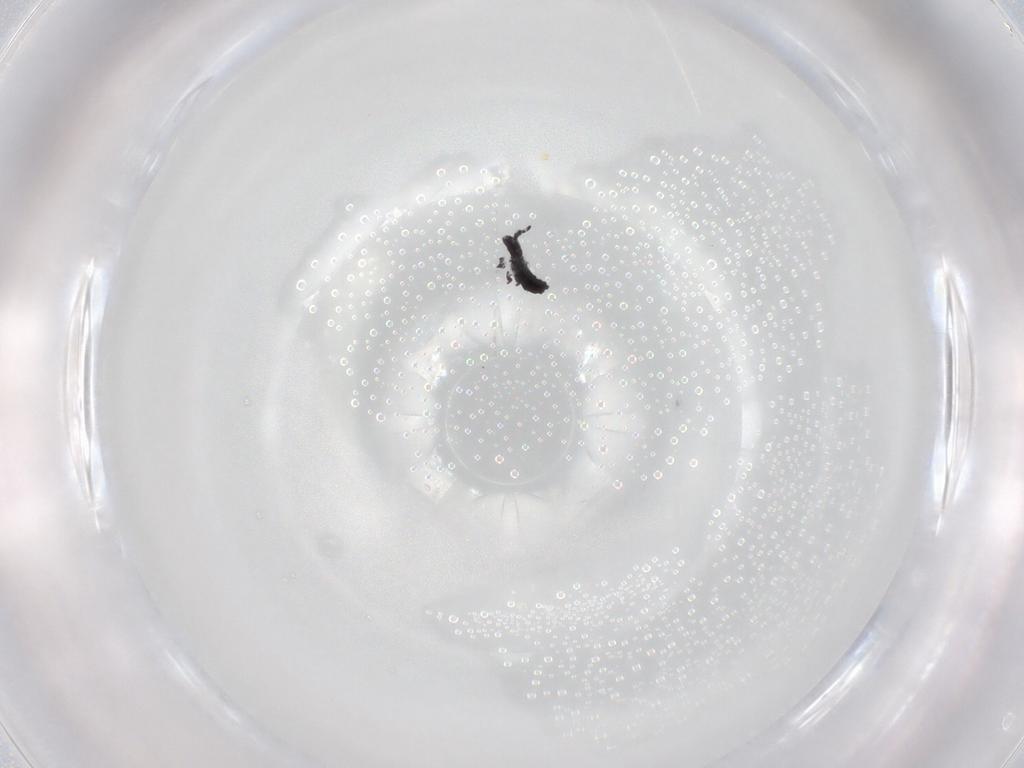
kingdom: Animalia
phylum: Arthropoda
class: Collembola
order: Poduromorpha
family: Hypogastruridae
